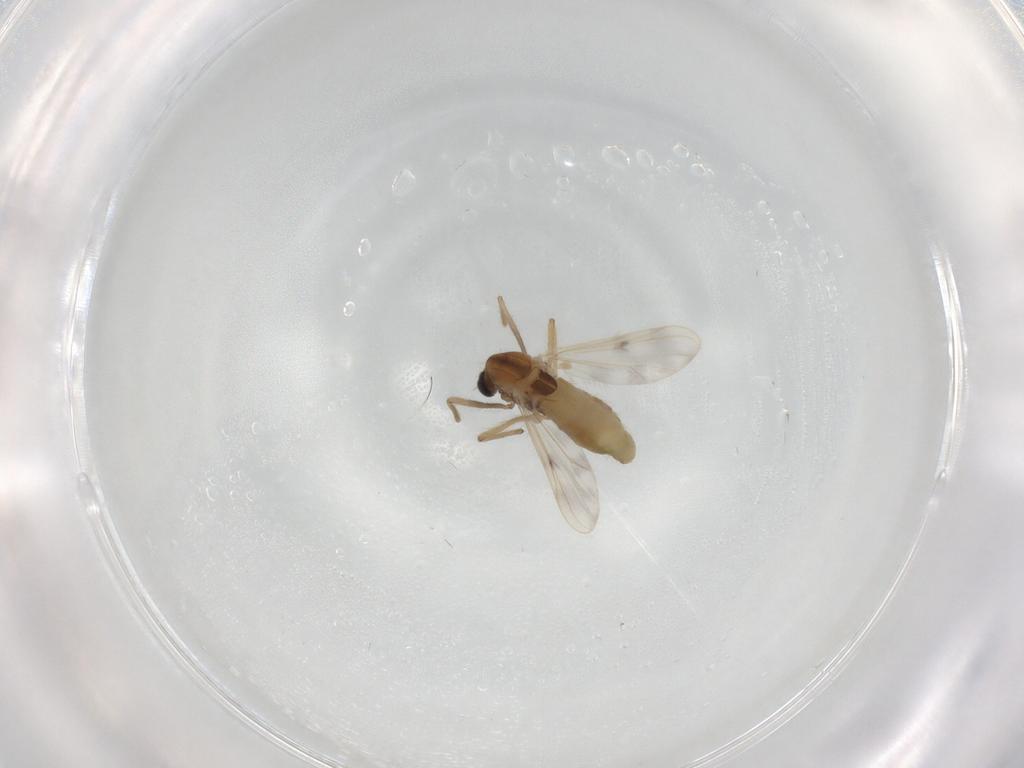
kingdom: Animalia
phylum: Arthropoda
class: Insecta
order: Diptera
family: Chironomidae
